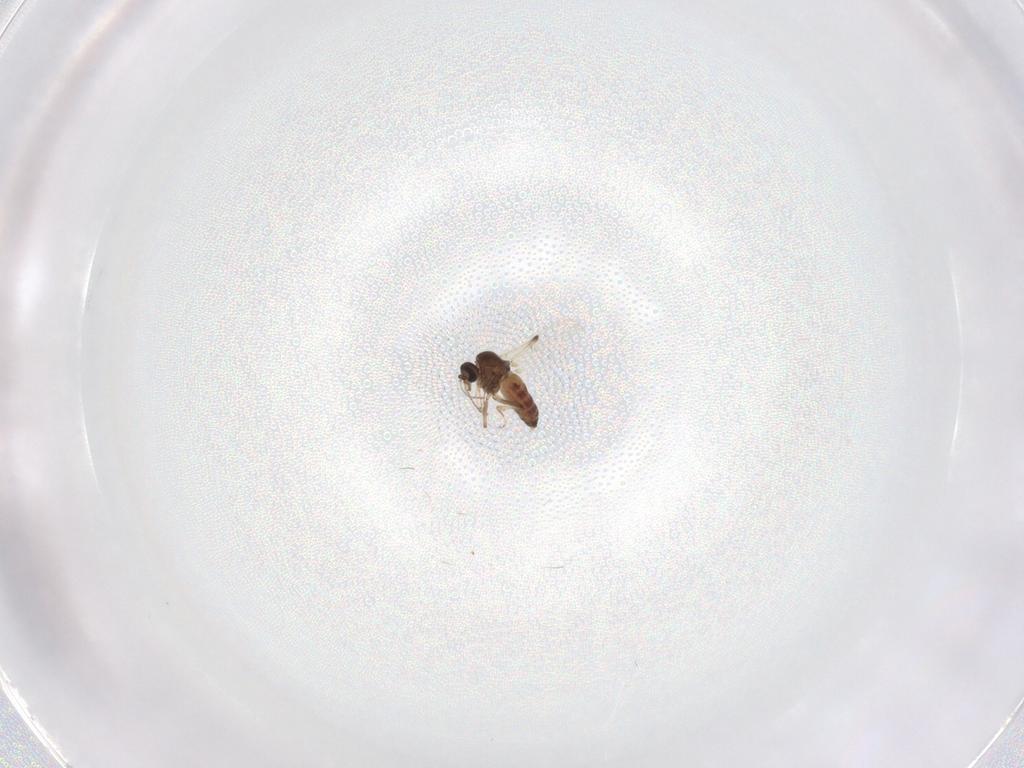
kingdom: Animalia
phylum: Arthropoda
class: Insecta
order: Diptera
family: Ceratopogonidae
